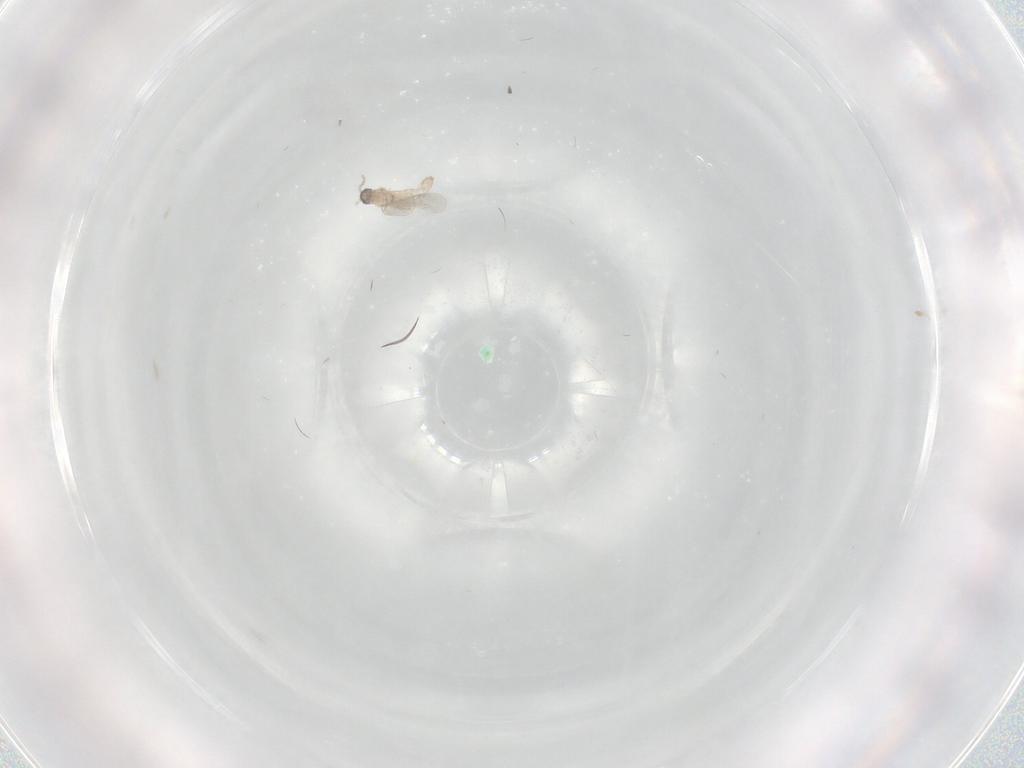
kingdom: Animalia
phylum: Arthropoda
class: Insecta
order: Diptera
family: Cecidomyiidae
